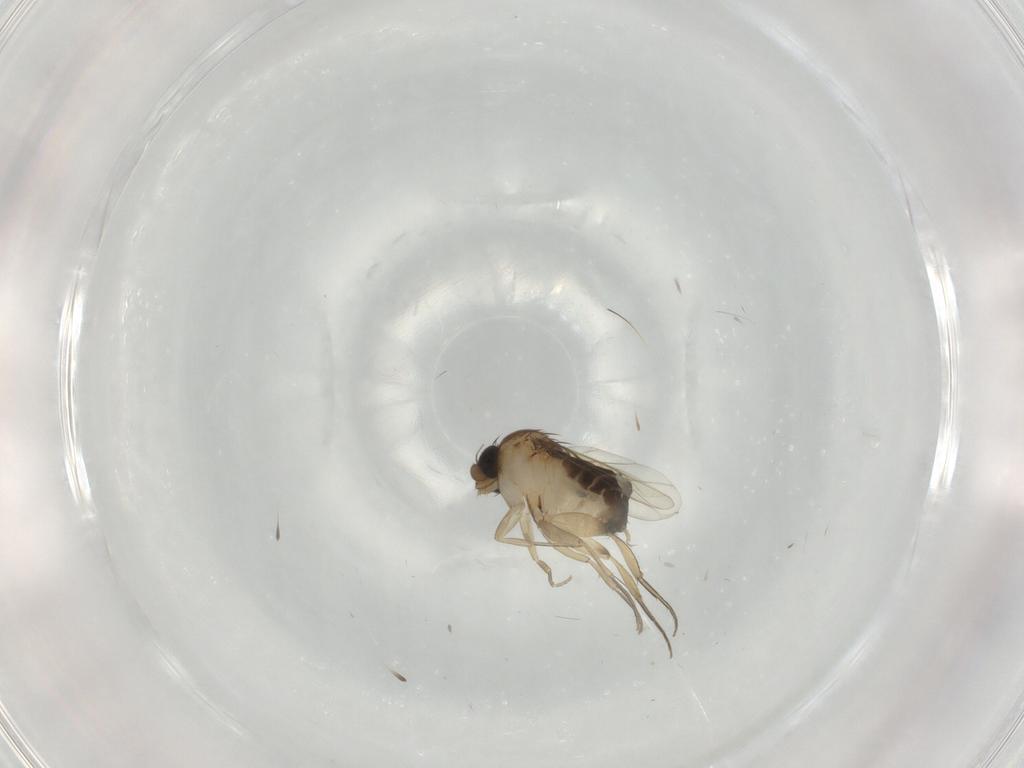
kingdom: Animalia
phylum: Arthropoda
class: Insecta
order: Diptera
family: Phoridae
